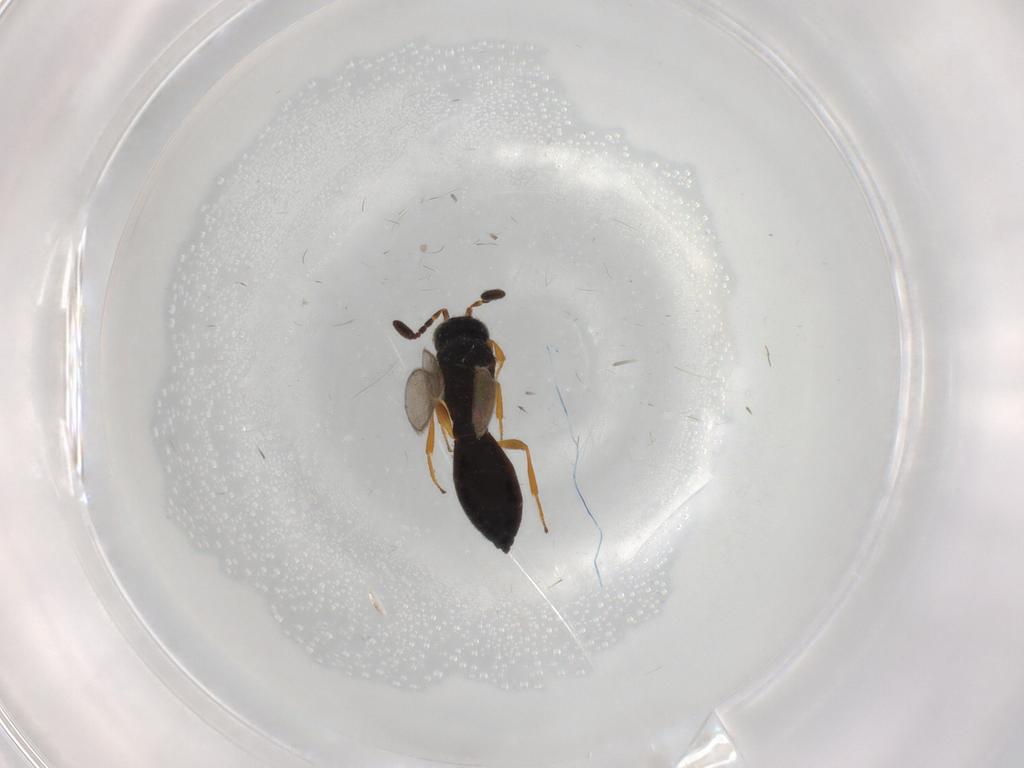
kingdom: Animalia
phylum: Arthropoda
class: Insecta
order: Hymenoptera
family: Scelionidae
